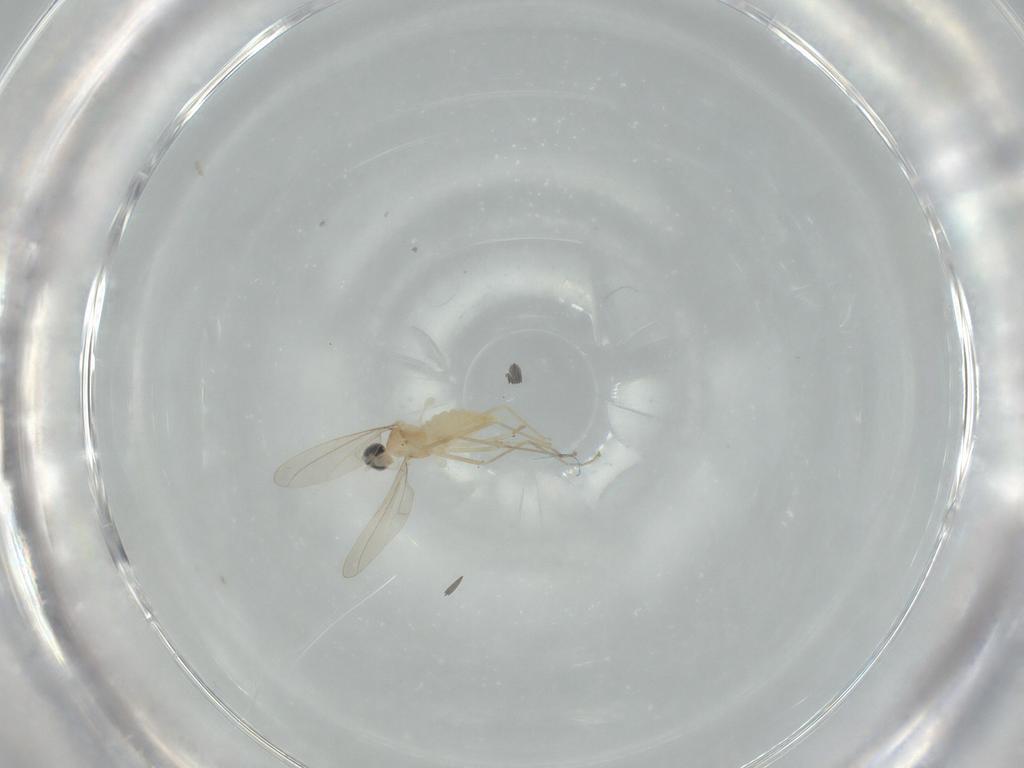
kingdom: Animalia
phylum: Arthropoda
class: Insecta
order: Diptera
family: Cecidomyiidae
